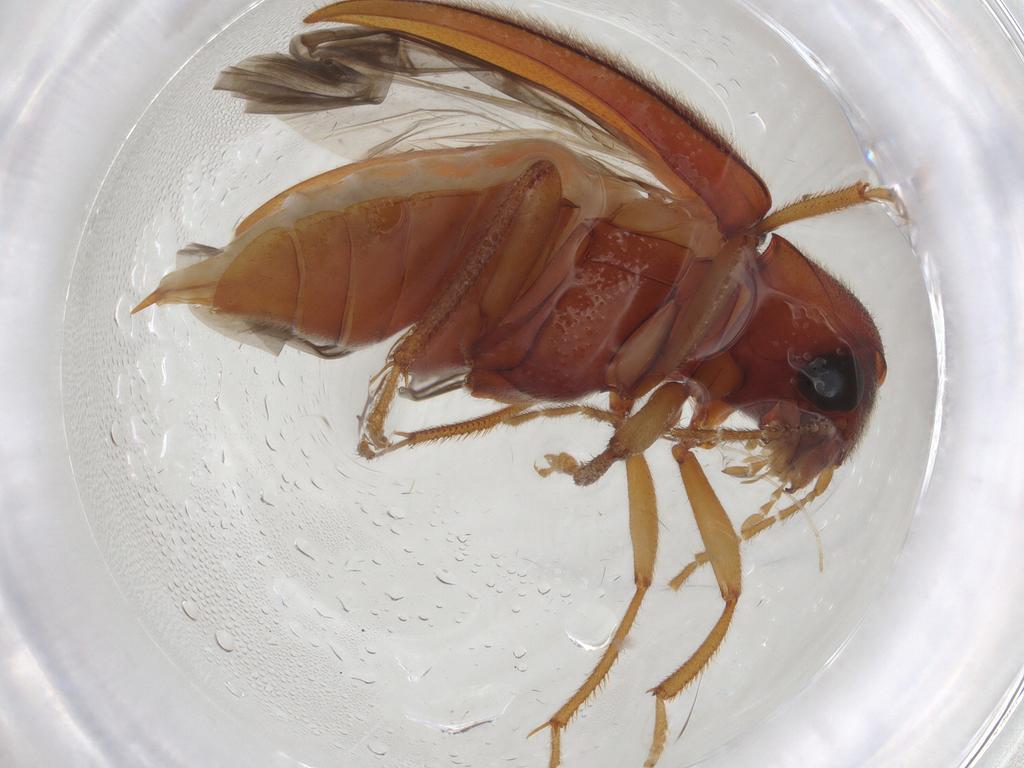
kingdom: Animalia
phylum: Arthropoda
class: Insecta
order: Coleoptera
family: Ptilodactylidae
